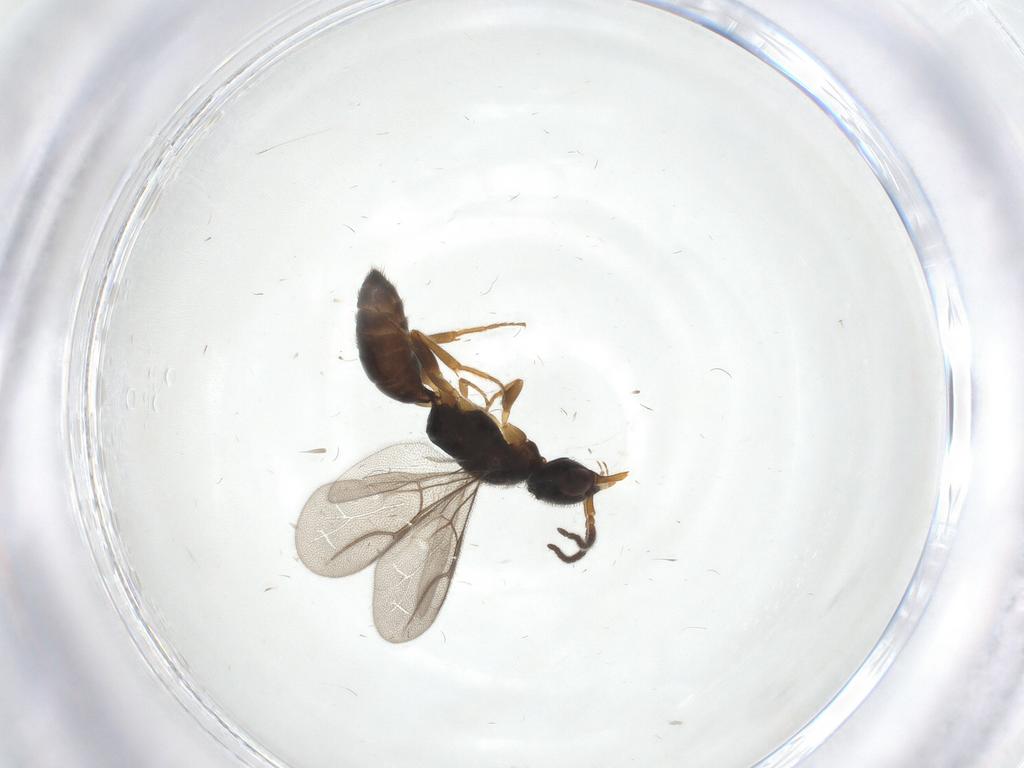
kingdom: Animalia
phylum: Arthropoda
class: Insecta
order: Hymenoptera
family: Bethylidae
